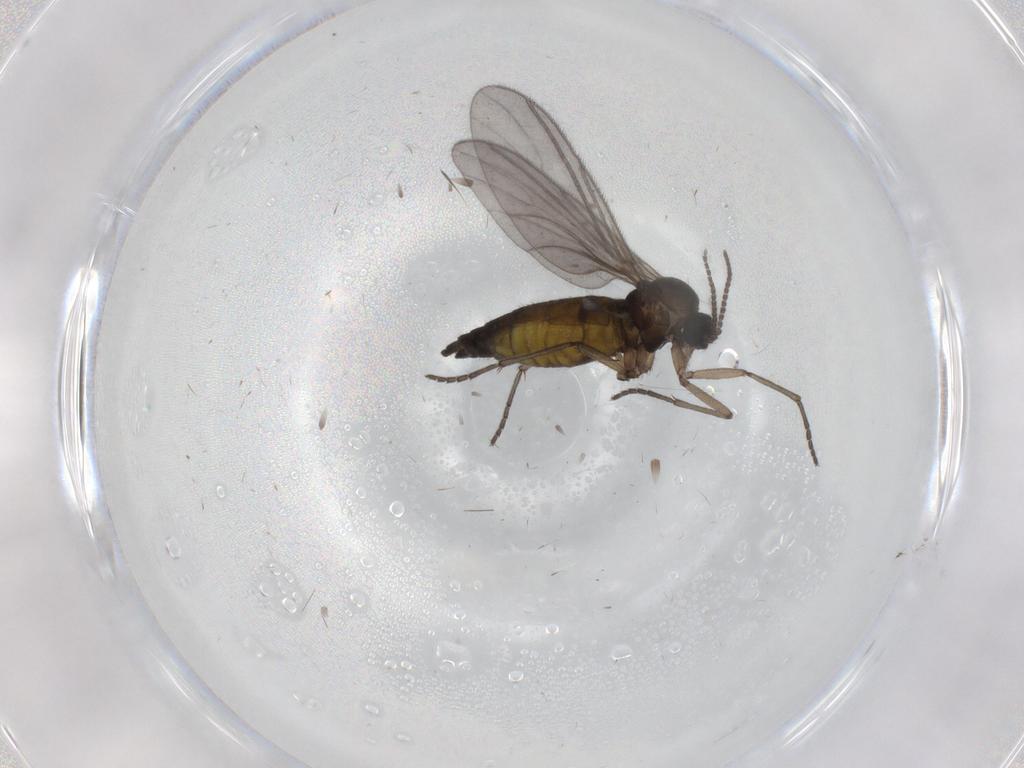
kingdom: Animalia
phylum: Arthropoda
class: Insecta
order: Diptera
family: Sciaridae
